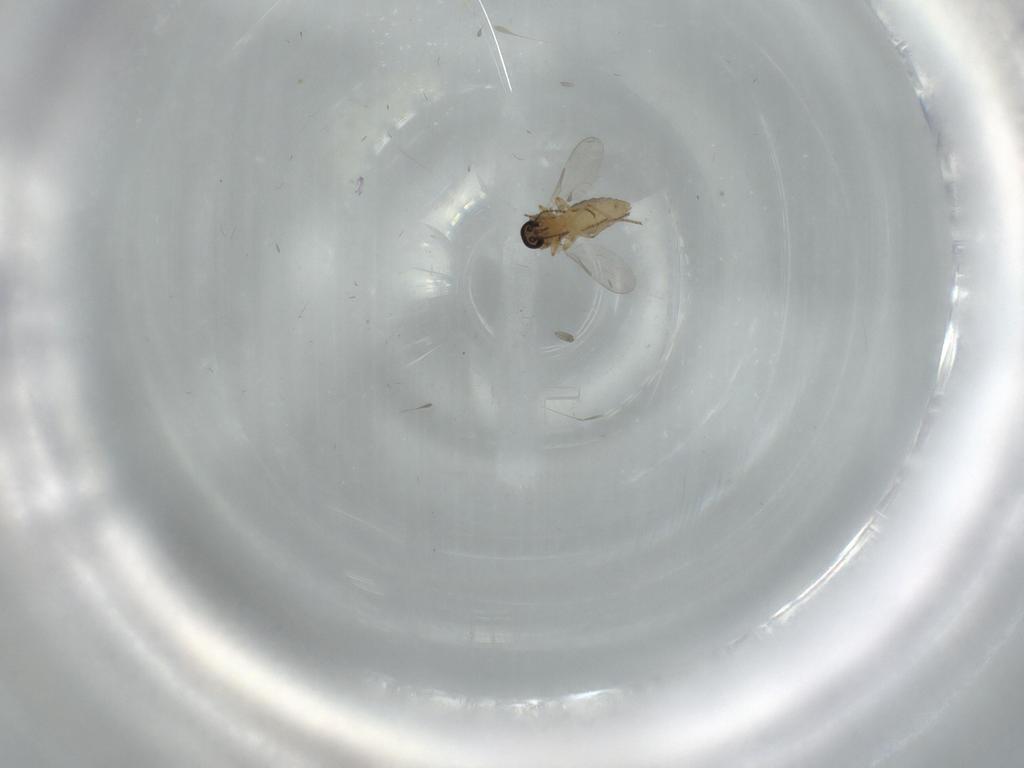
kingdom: Animalia
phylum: Arthropoda
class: Insecta
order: Diptera
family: Ceratopogonidae
